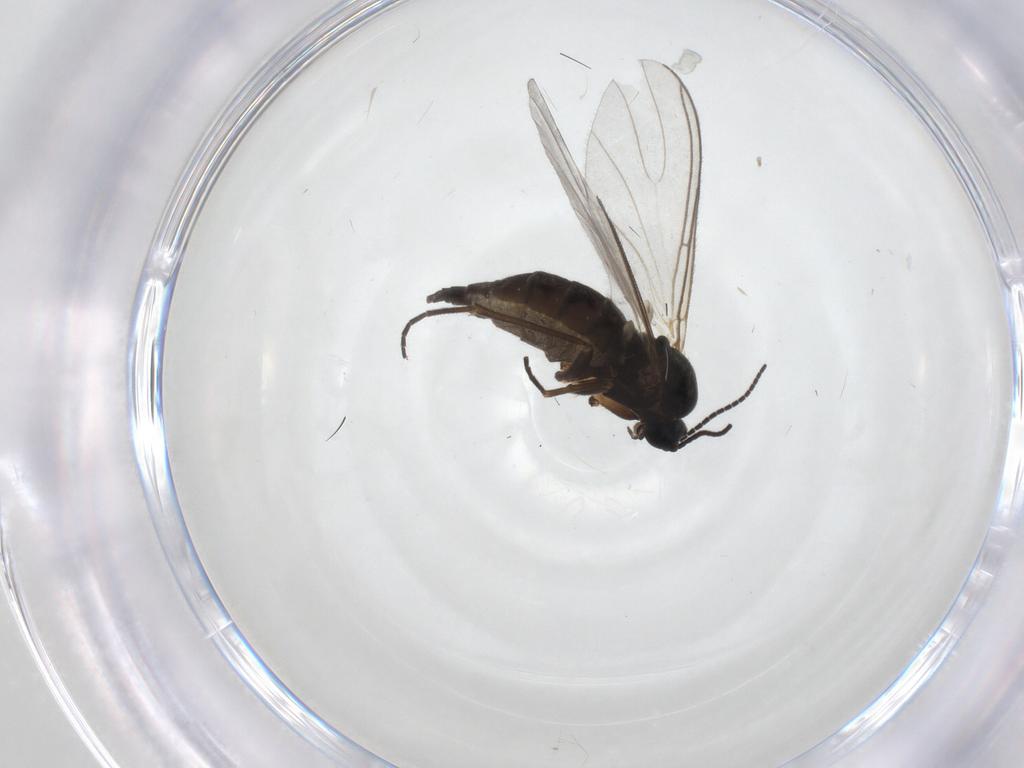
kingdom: Animalia
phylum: Arthropoda
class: Insecta
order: Diptera
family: Sciaridae
